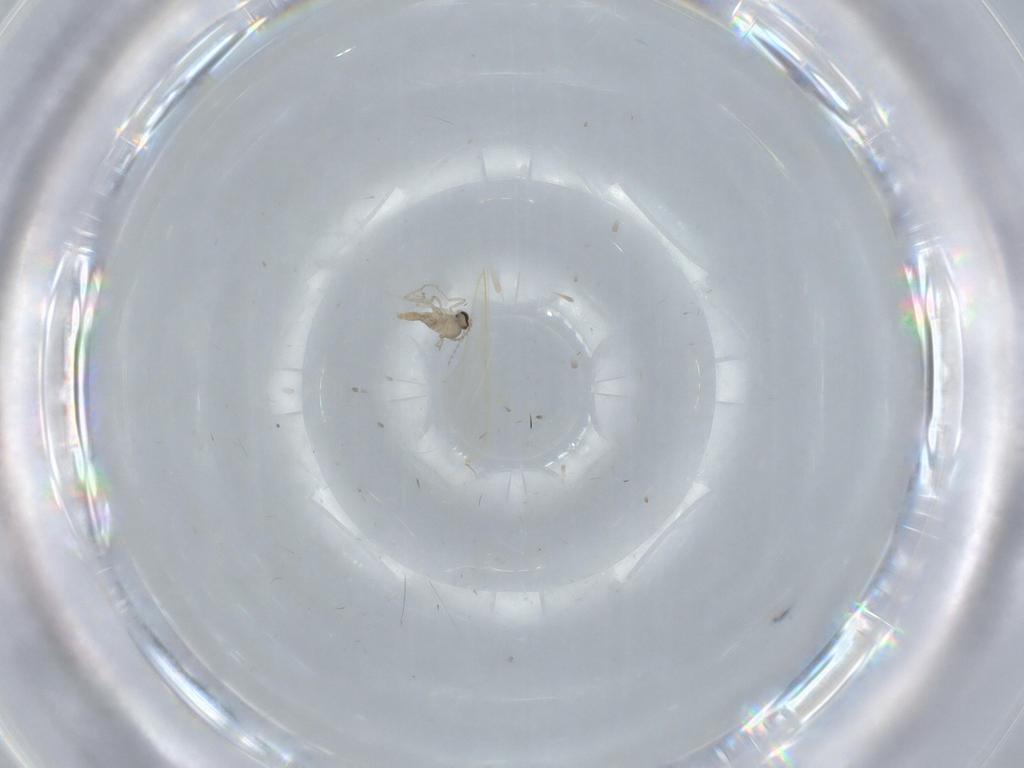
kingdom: Animalia
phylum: Arthropoda
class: Insecta
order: Diptera
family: Cecidomyiidae
